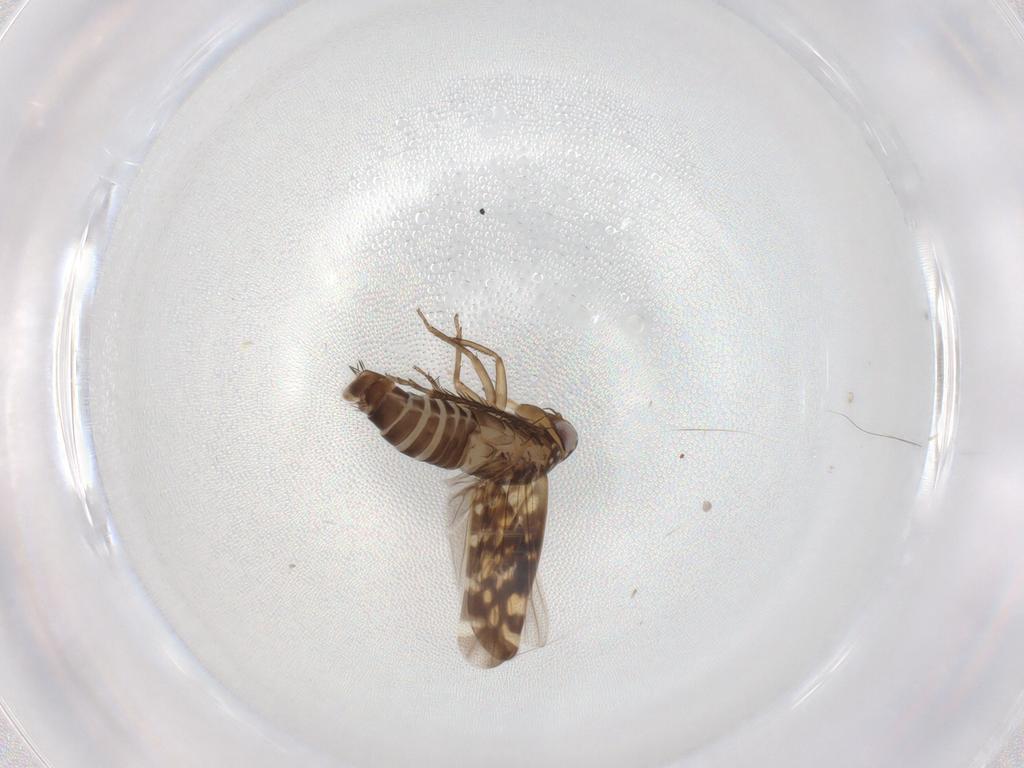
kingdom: Animalia
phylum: Arthropoda
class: Insecta
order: Hemiptera
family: Cicadellidae
